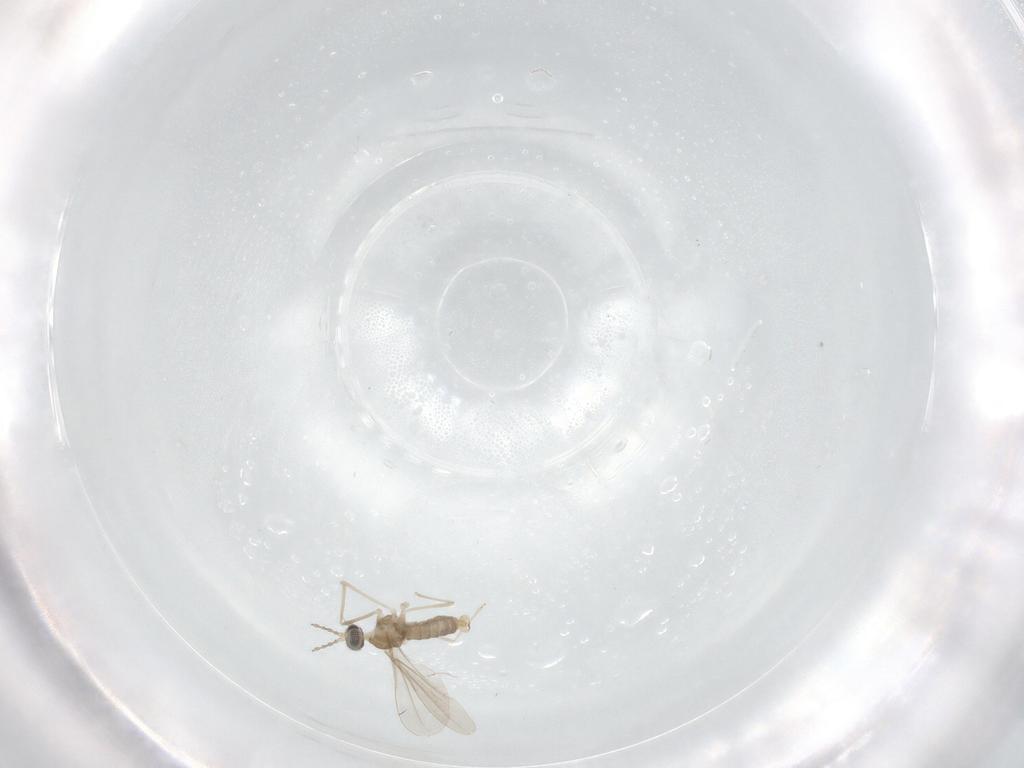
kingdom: Animalia
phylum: Arthropoda
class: Insecta
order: Diptera
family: Cecidomyiidae
